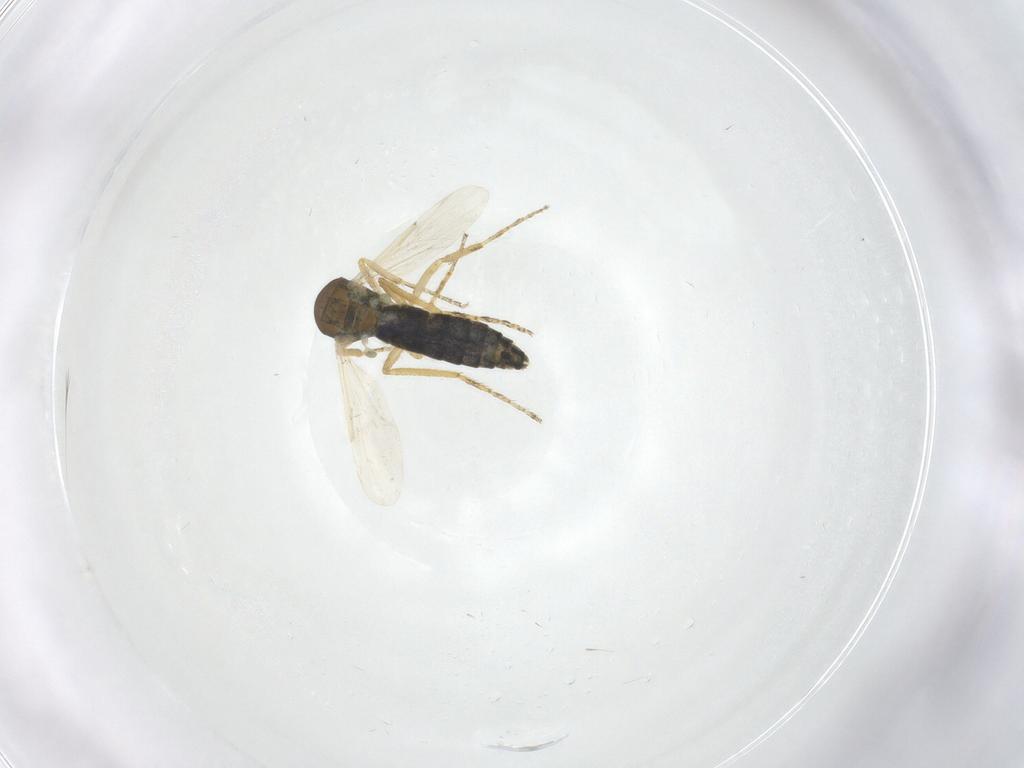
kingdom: Animalia
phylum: Arthropoda
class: Insecta
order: Diptera
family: Ceratopogonidae
